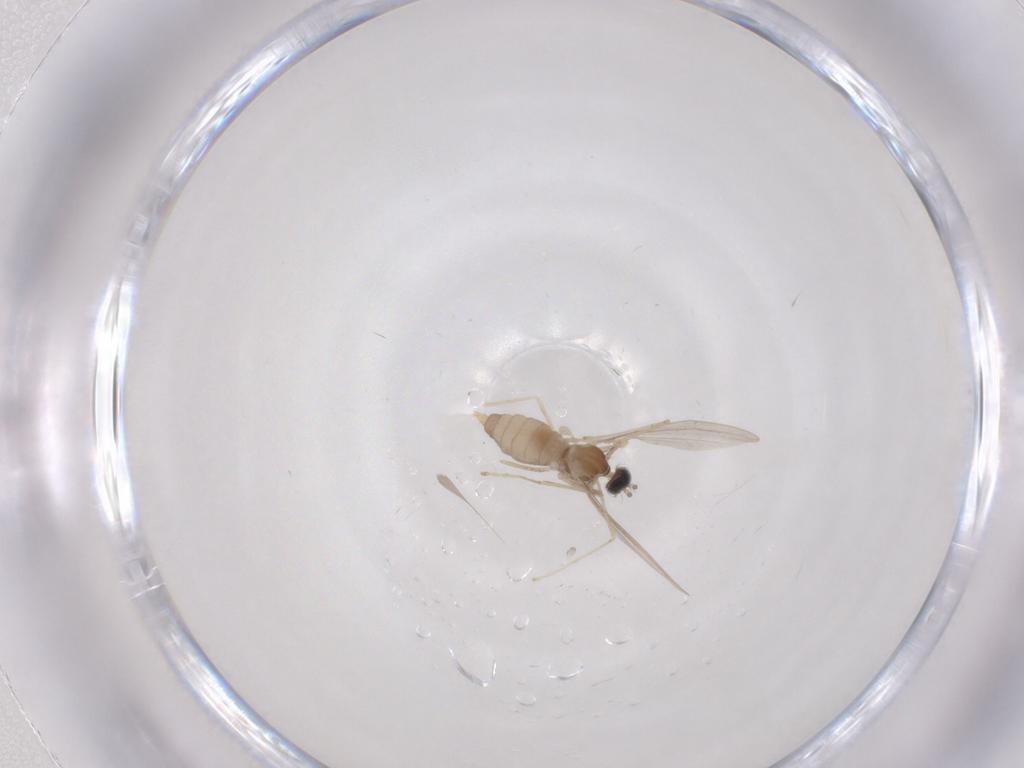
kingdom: Animalia
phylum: Arthropoda
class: Insecta
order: Diptera
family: Cecidomyiidae
